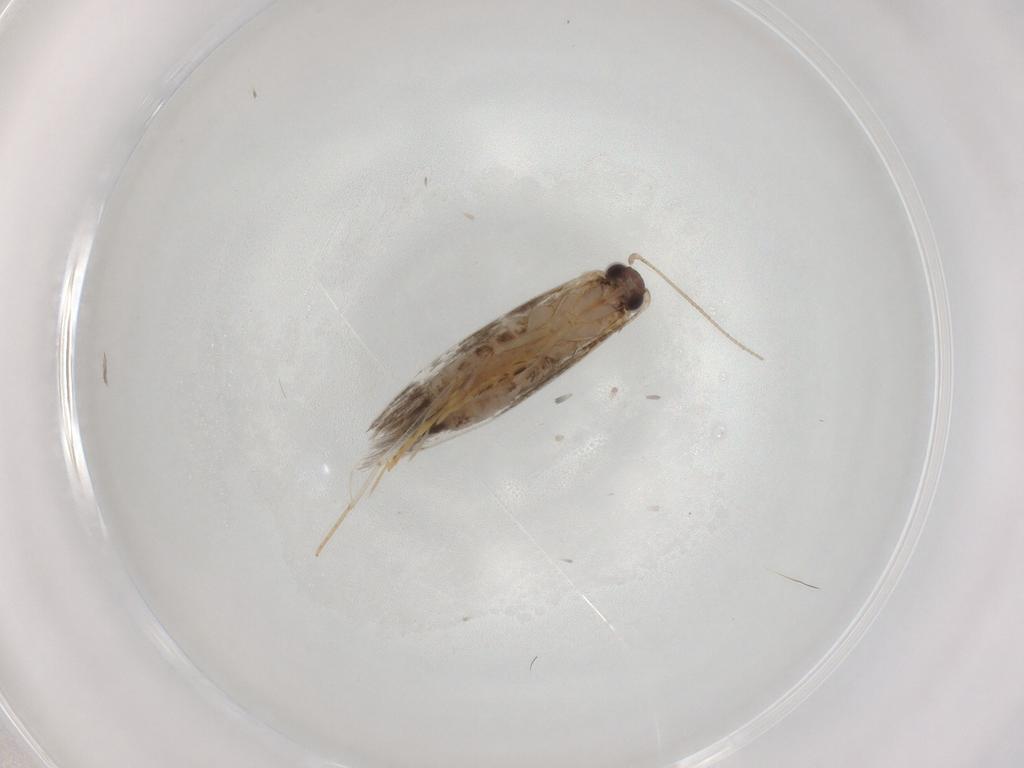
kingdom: Animalia
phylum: Arthropoda
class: Insecta
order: Lepidoptera
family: Tineidae
